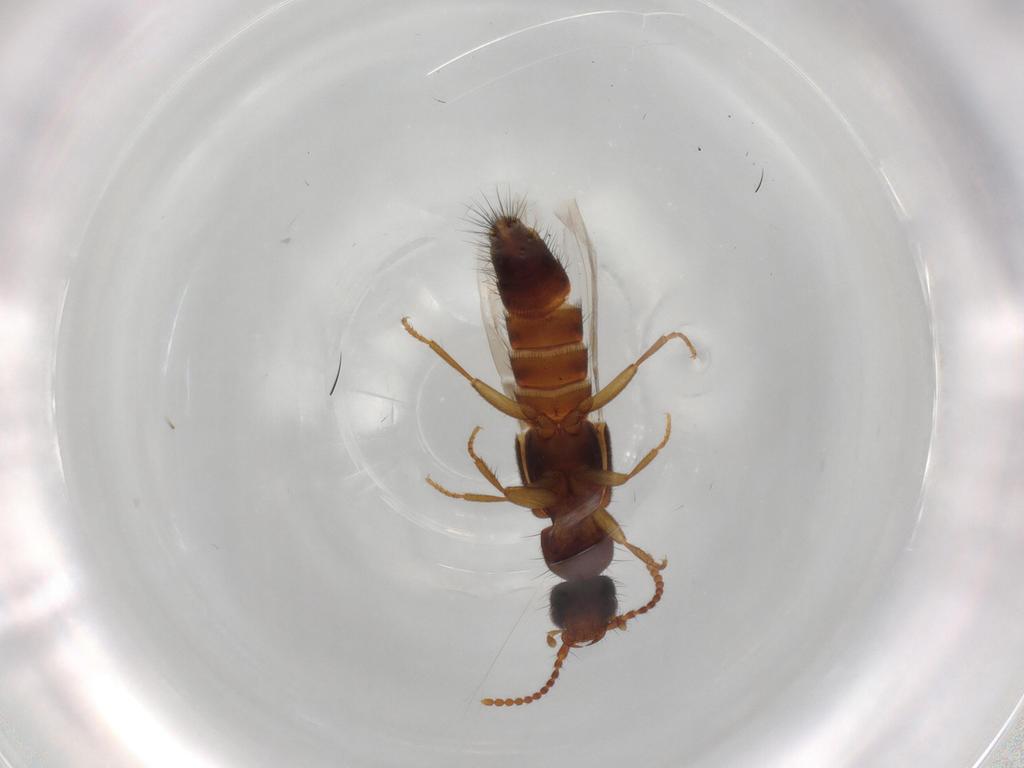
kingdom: Animalia
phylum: Arthropoda
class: Insecta
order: Coleoptera
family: Staphylinidae
